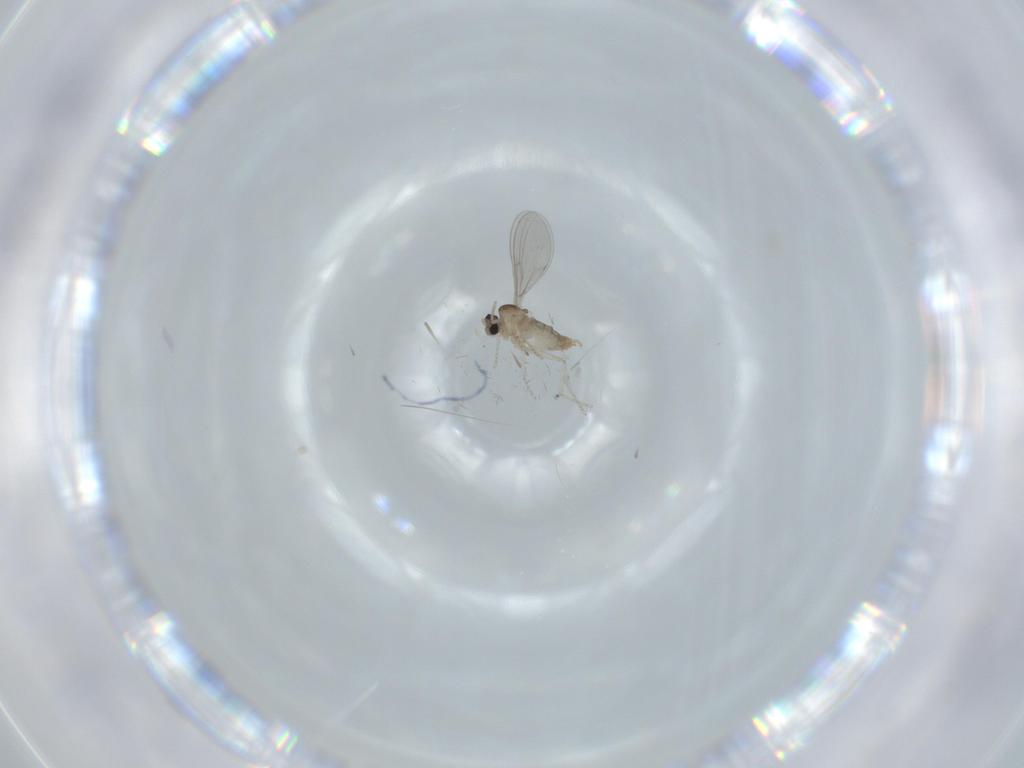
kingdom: Animalia
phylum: Arthropoda
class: Insecta
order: Diptera
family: Cecidomyiidae
